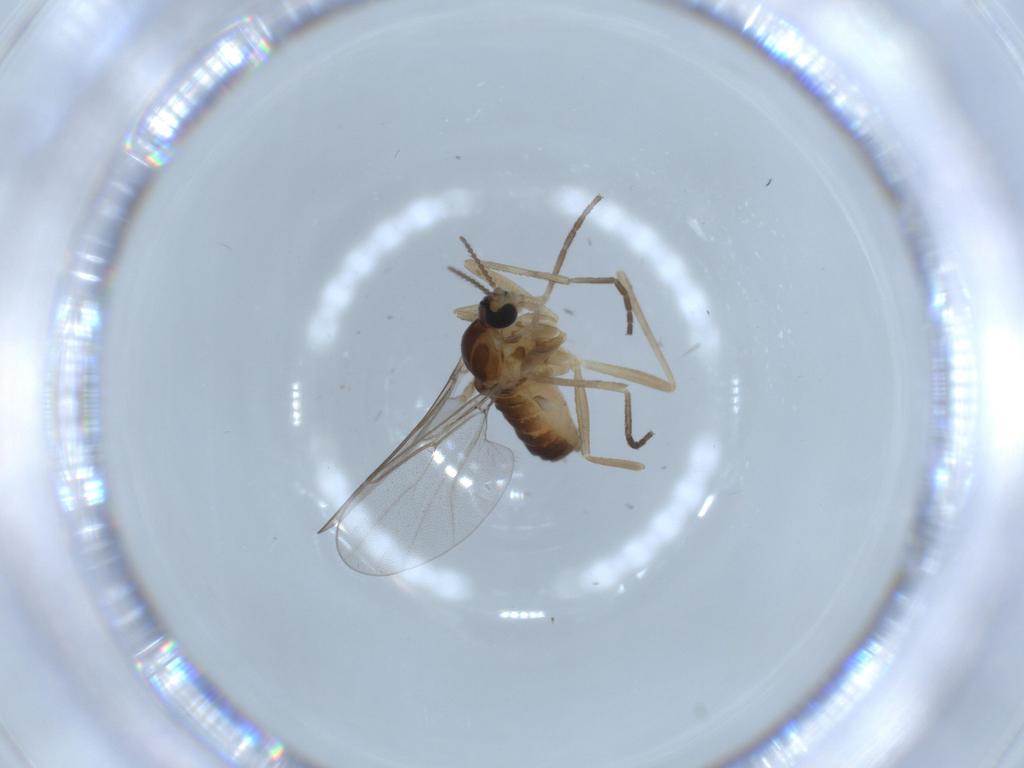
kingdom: Animalia
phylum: Arthropoda
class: Insecta
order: Diptera
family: Cecidomyiidae
